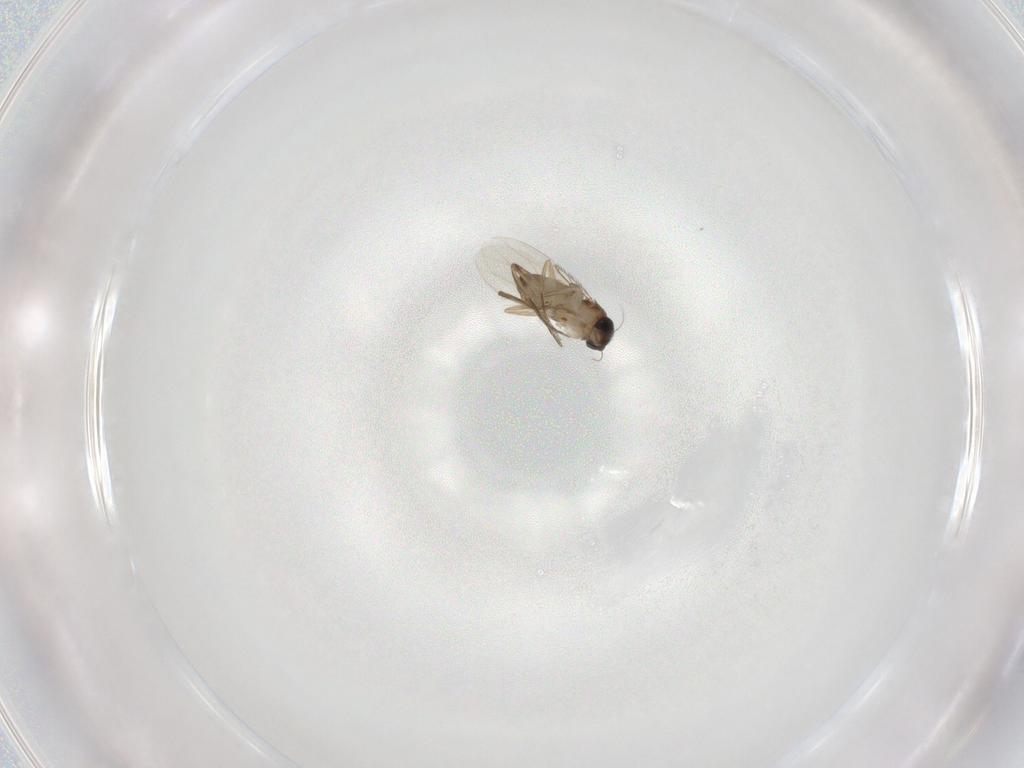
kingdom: Animalia
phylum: Arthropoda
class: Insecta
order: Diptera
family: Phoridae
